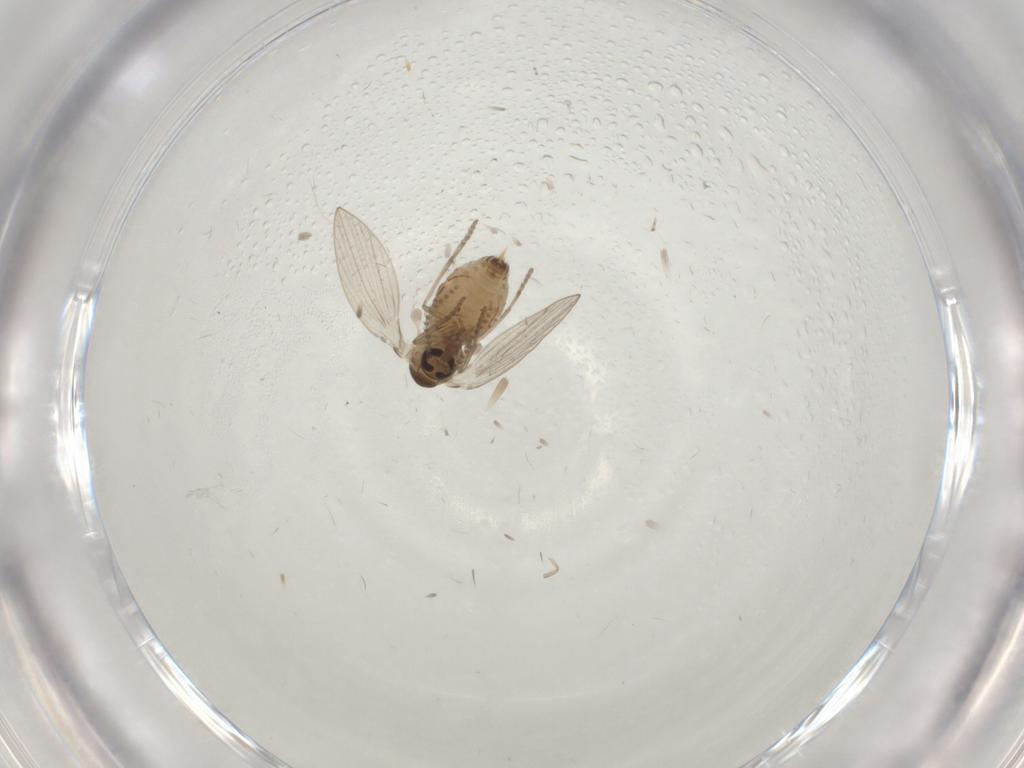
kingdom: Animalia
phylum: Arthropoda
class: Insecta
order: Diptera
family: Psychodidae
